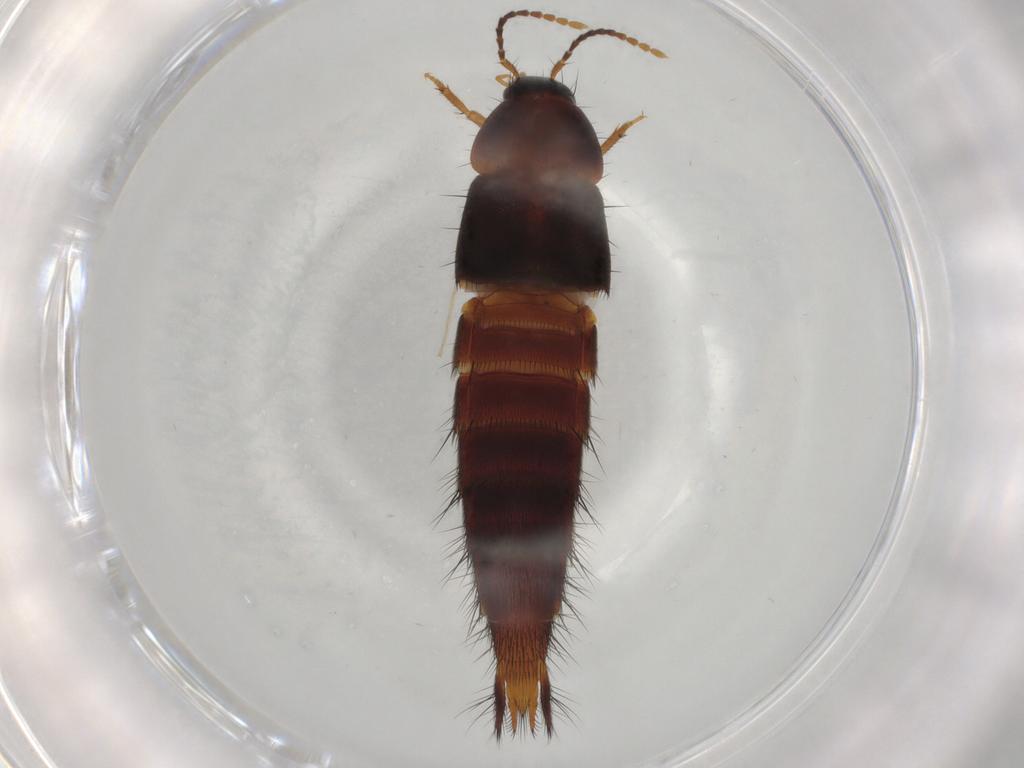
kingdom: Animalia
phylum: Arthropoda
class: Insecta
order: Coleoptera
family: Staphylinidae
